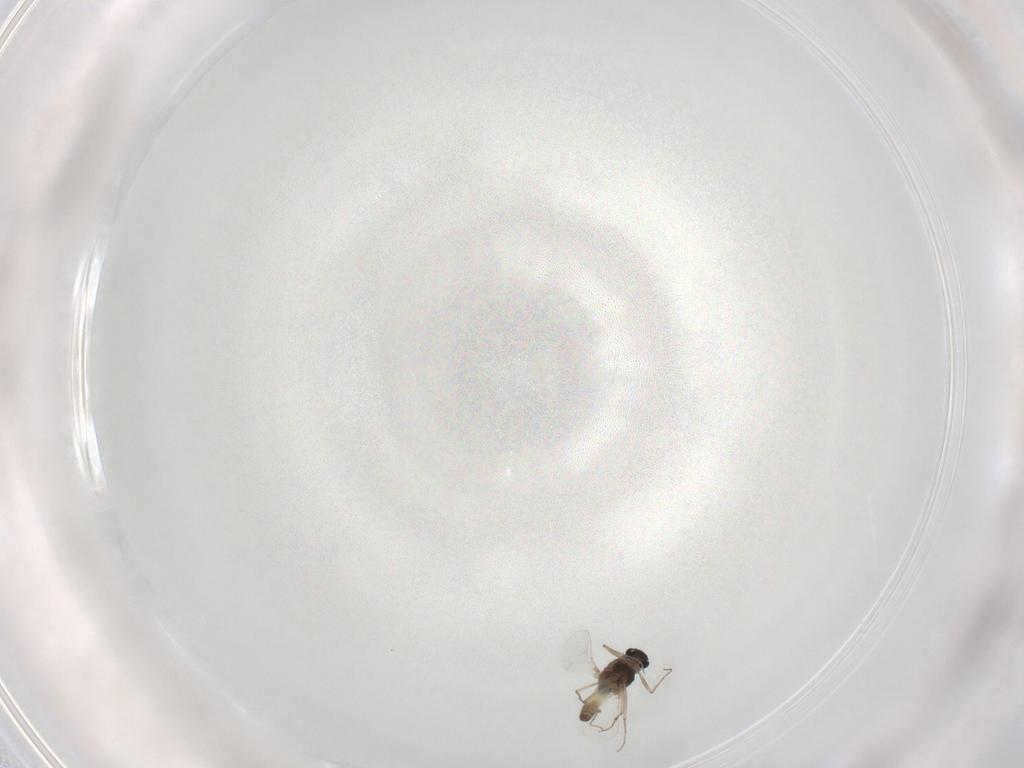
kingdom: Animalia
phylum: Arthropoda
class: Insecta
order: Diptera
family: Chironomidae
